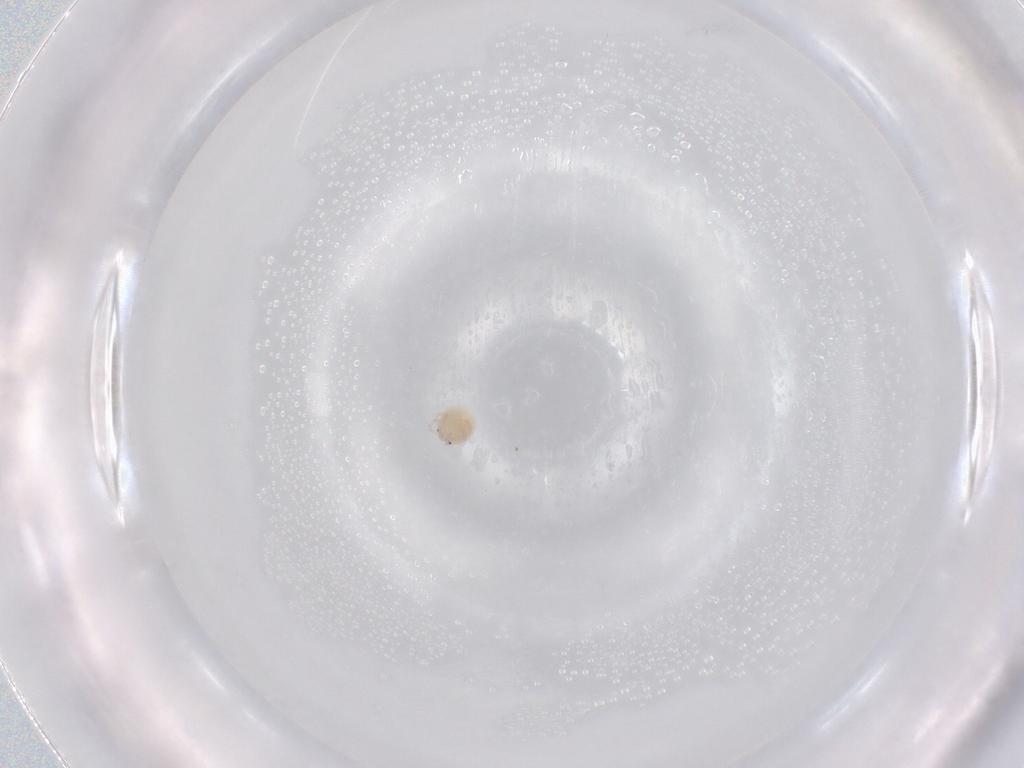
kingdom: Animalia
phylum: Arthropoda
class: Arachnida
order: Trombidiformes
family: Lebertiidae
